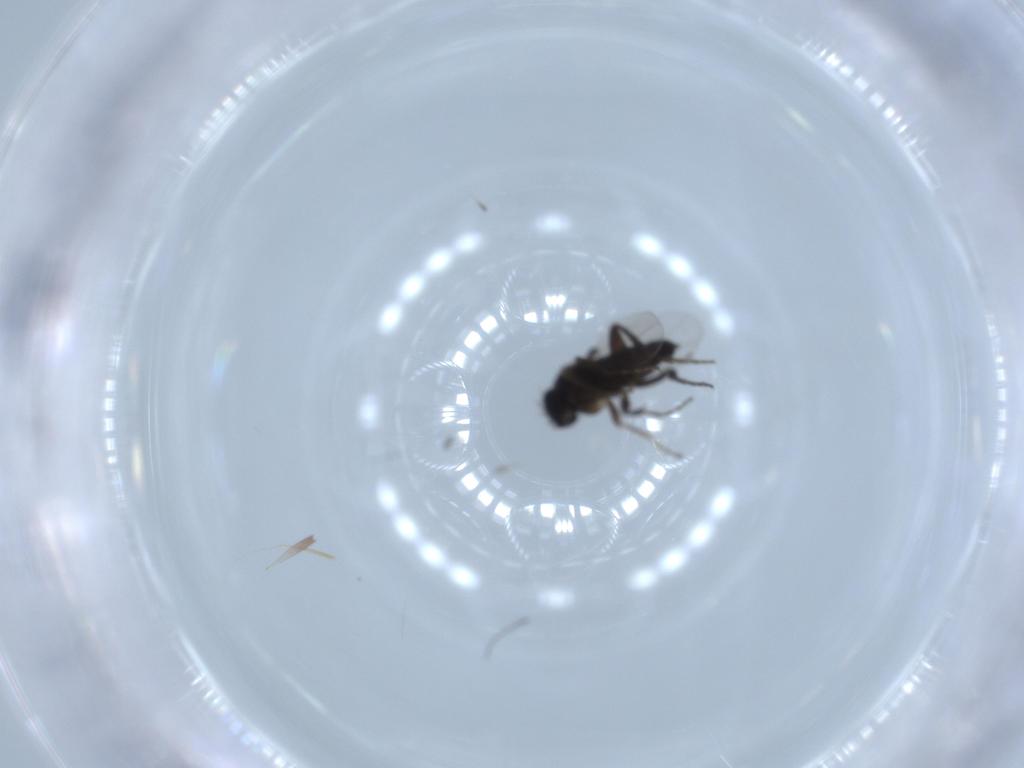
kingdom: Animalia
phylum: Arthropoda
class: Insecta
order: Diptera
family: Phoridae
